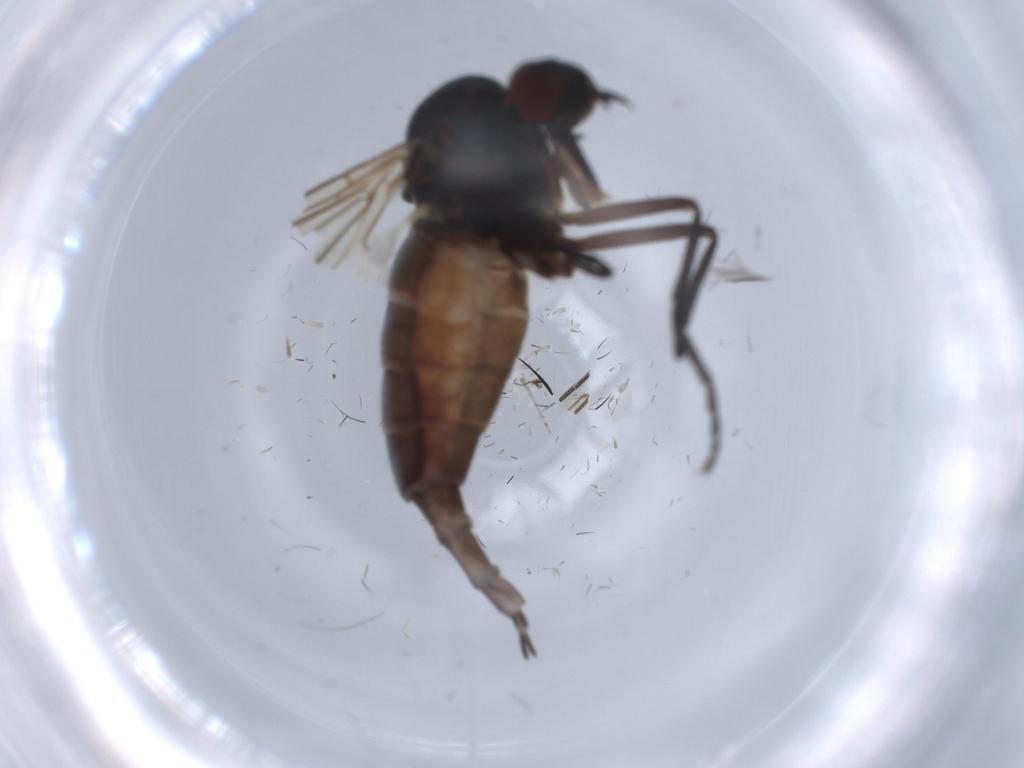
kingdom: Animalia
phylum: Arthropoda
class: Insecta
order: Diptera
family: Empididae
